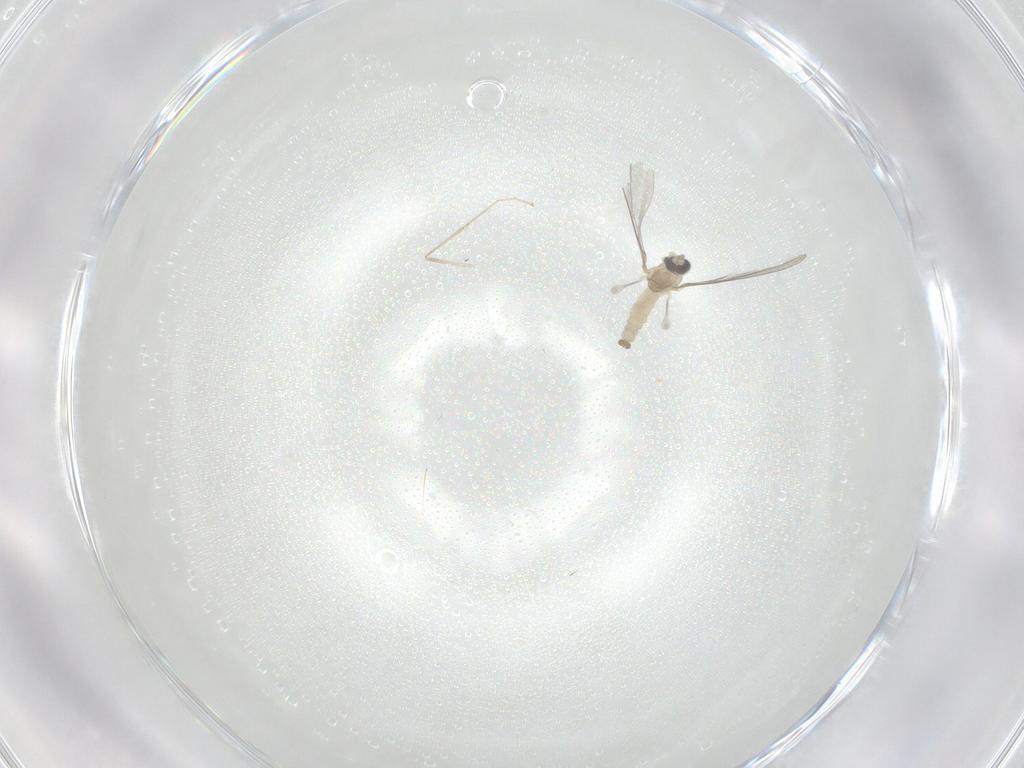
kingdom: Animalia
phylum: Arthropoda
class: Insecta
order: Diptera
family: Cecidomyiidae
